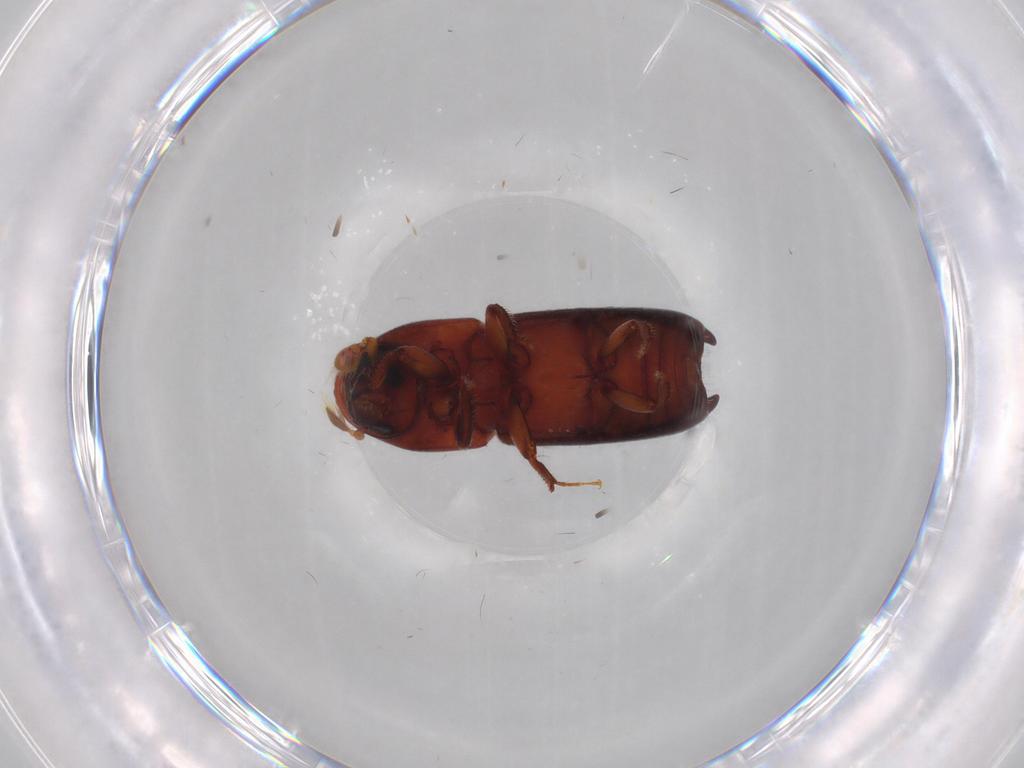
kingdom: Animalia
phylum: Arthropoda
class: Insecta
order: Coleoptera
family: Curculionidae
